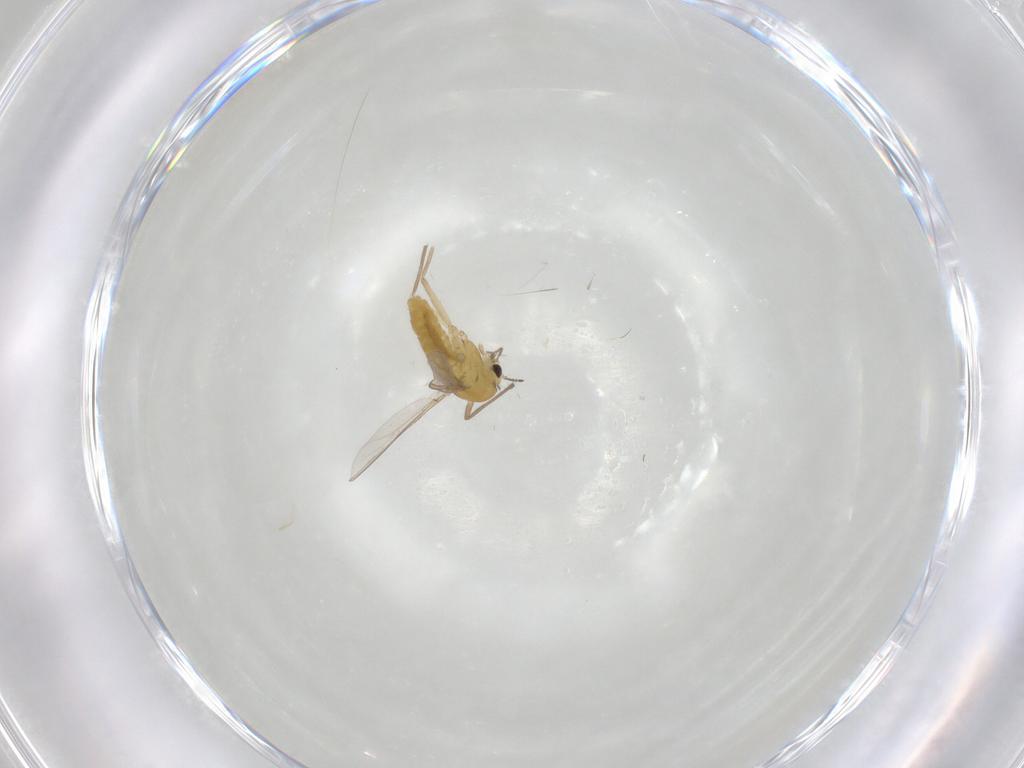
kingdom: Animalia
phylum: Arthropoda
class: Insecta
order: Diptera
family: Chironomidae
